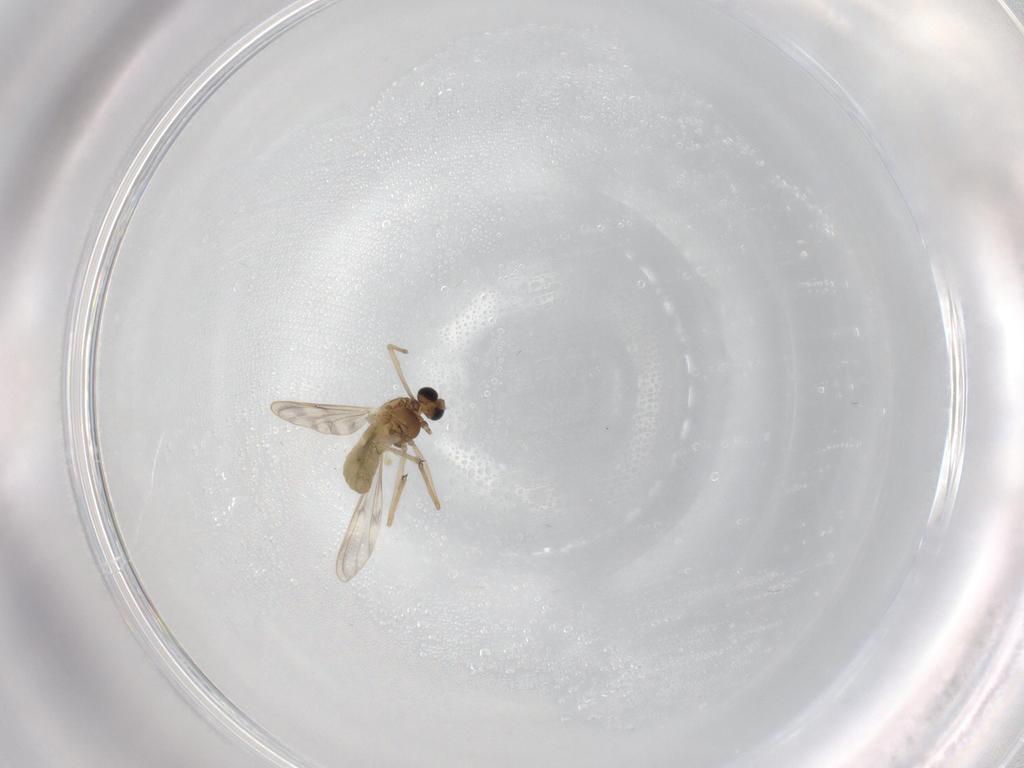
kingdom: Animalia
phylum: Arthropoda
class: Insecta
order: Diptera
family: Chironomidae
